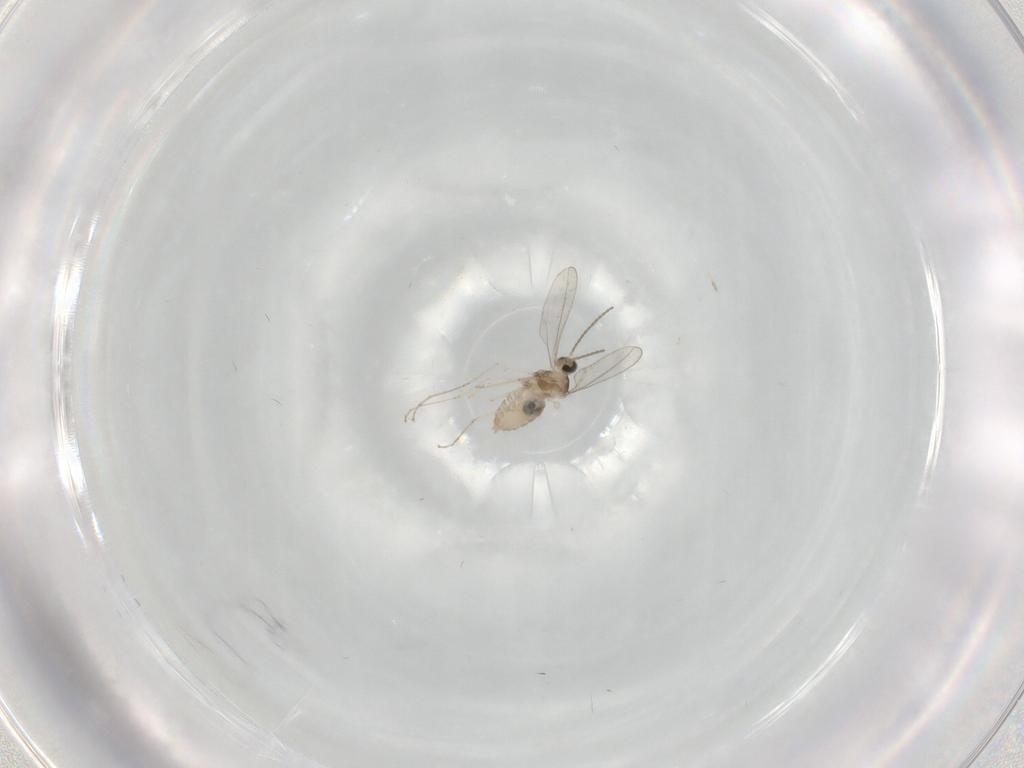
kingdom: Animalia
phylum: Arthropoda
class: Insecta
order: Diptera
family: Cecidomyiidae
